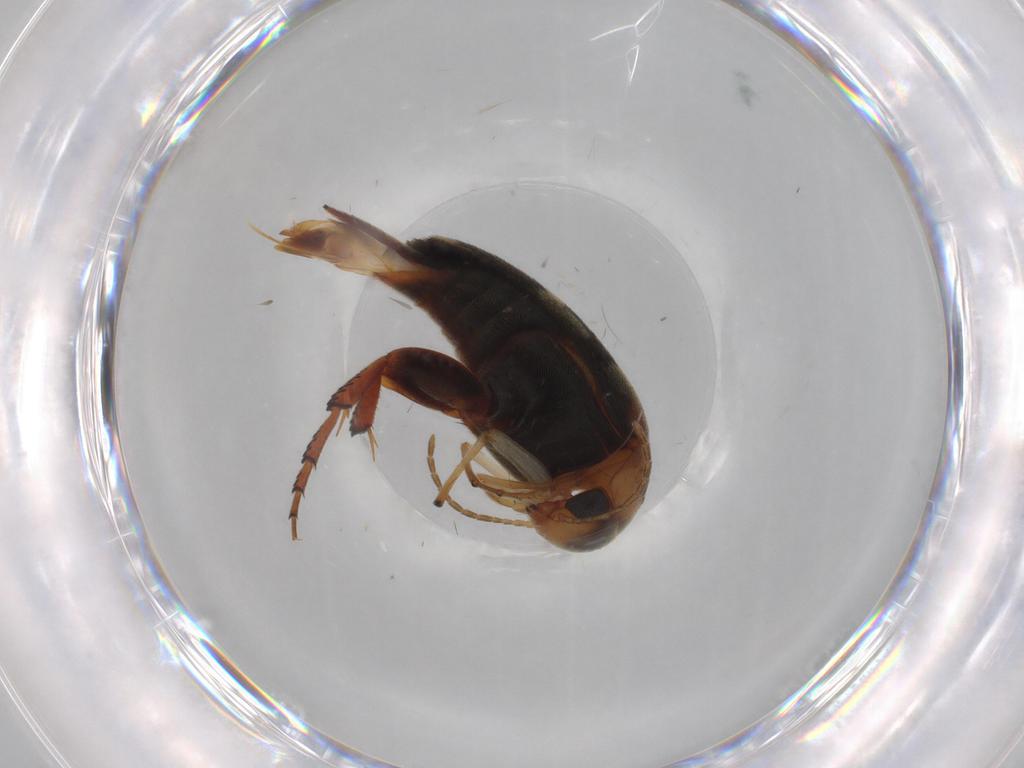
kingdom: Animalia
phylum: Arthropoda
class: Insecta
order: Coleoptera
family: Mordellidae
